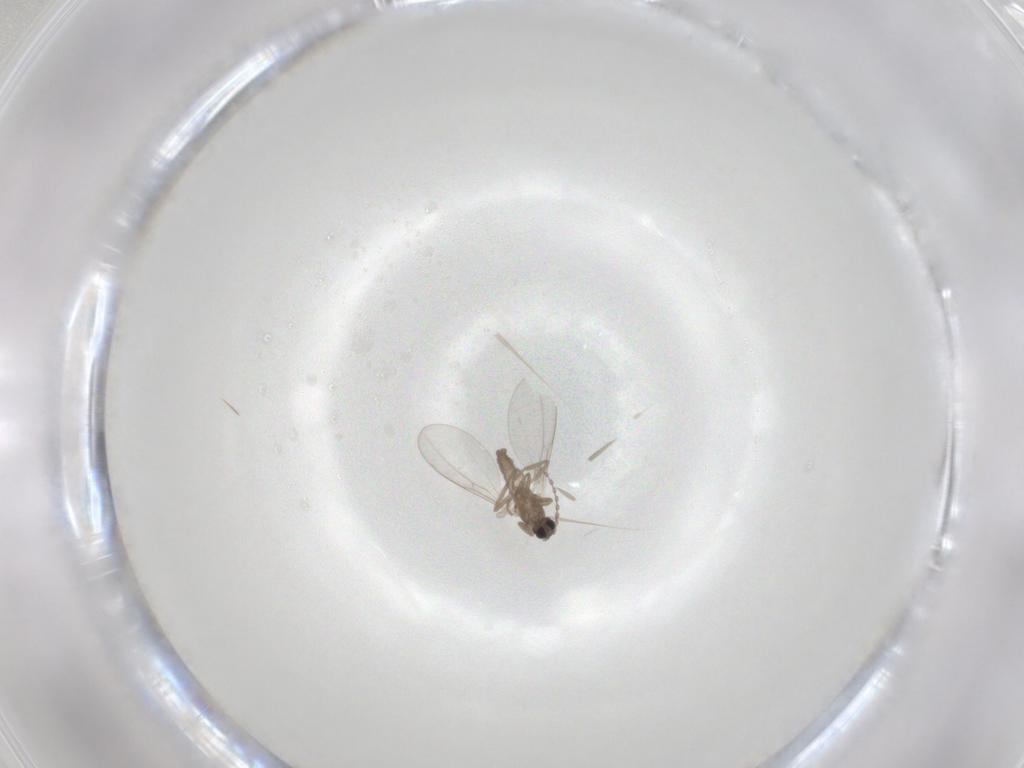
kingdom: Animalia
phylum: Arthropoda
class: Insecta
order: Diptera
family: Cecidomyiidae
